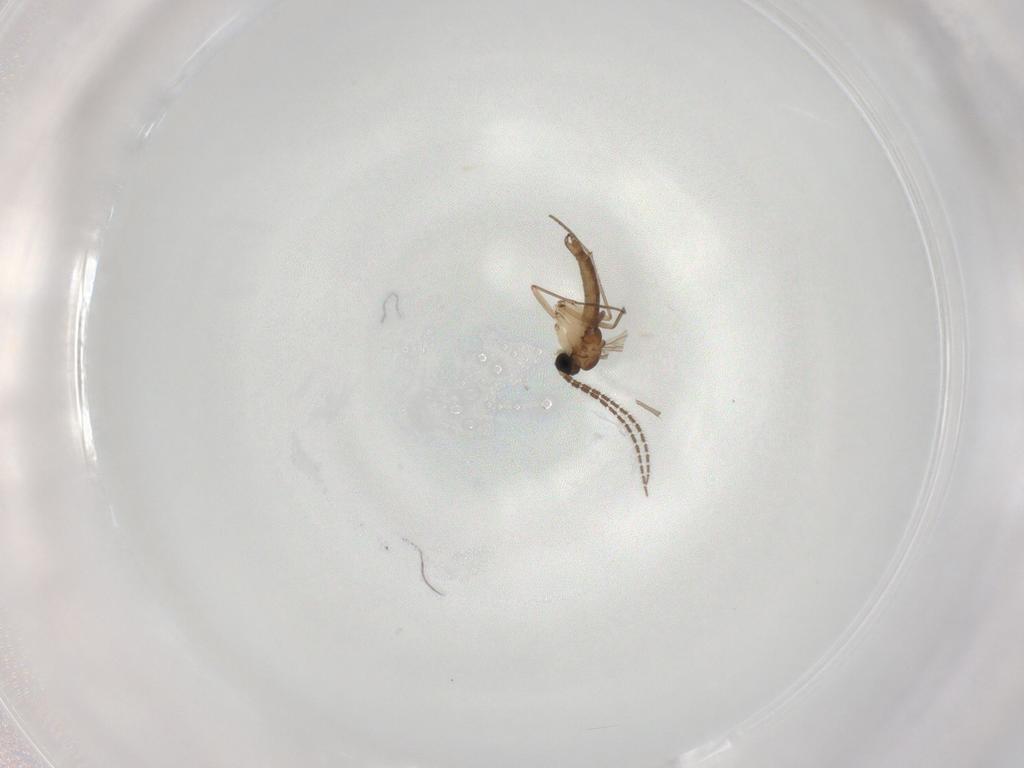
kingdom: Animalia
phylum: Arthropoda
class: Insecta
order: Diptera
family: Sciaridae
